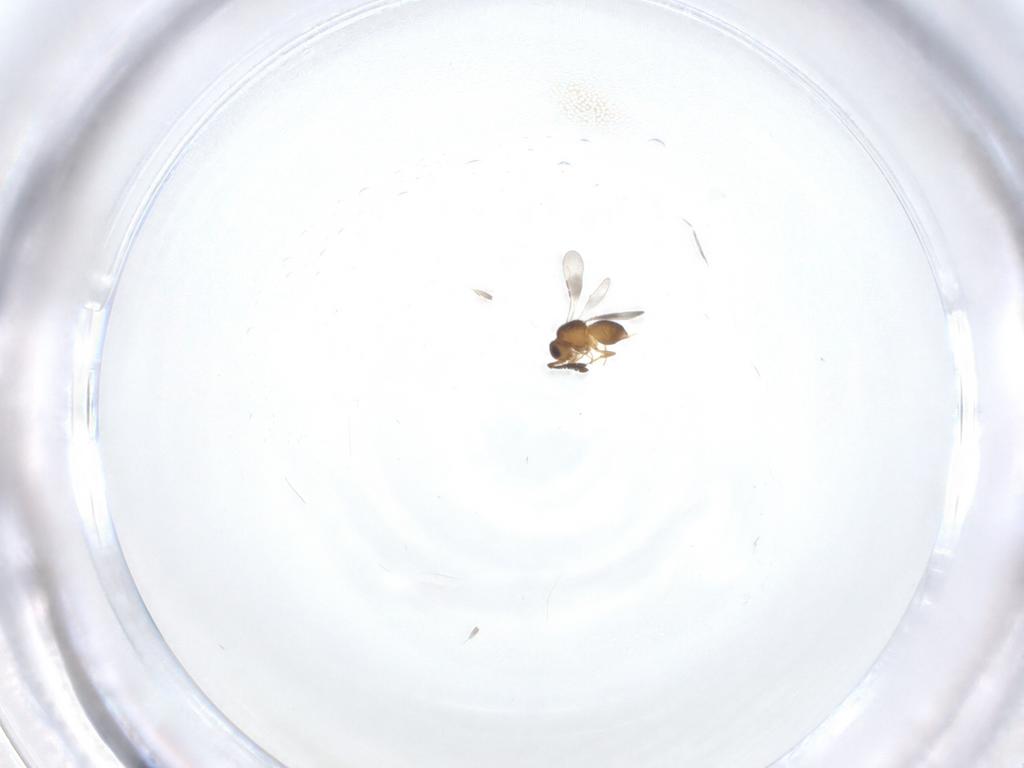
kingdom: Animalia
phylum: Arthropoda
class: Insecta
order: Hymenoptera
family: Ceraphronidae
